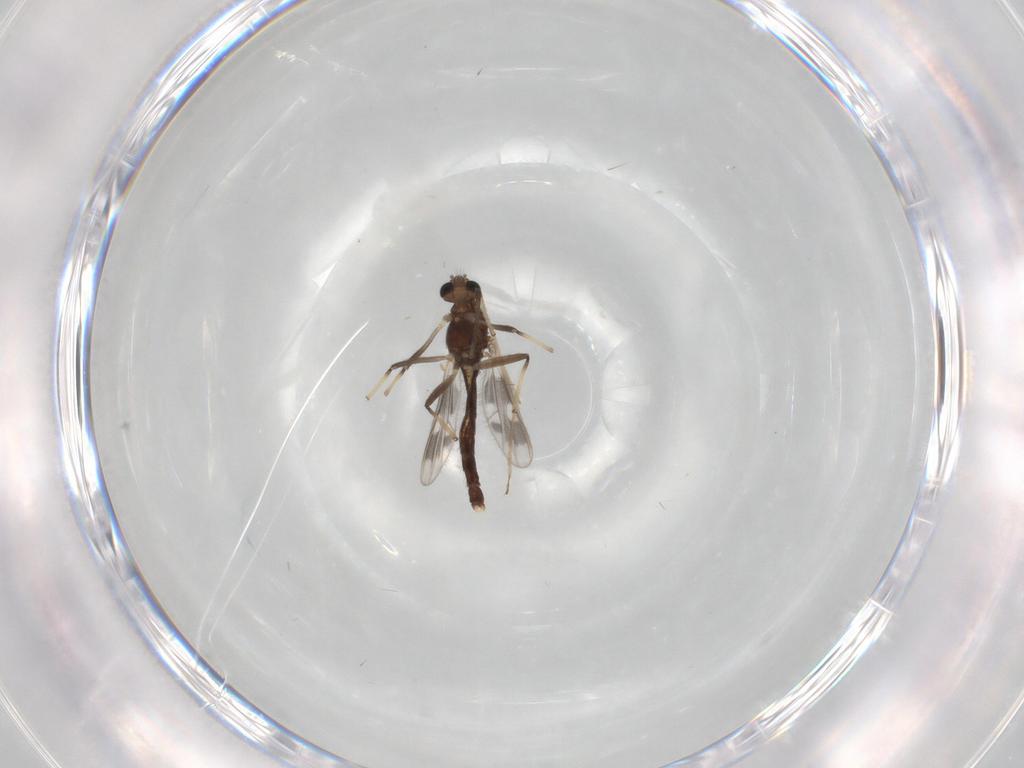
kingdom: Animalia
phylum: Arthropoda
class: Insecta
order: Diptera
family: Chironomidae
